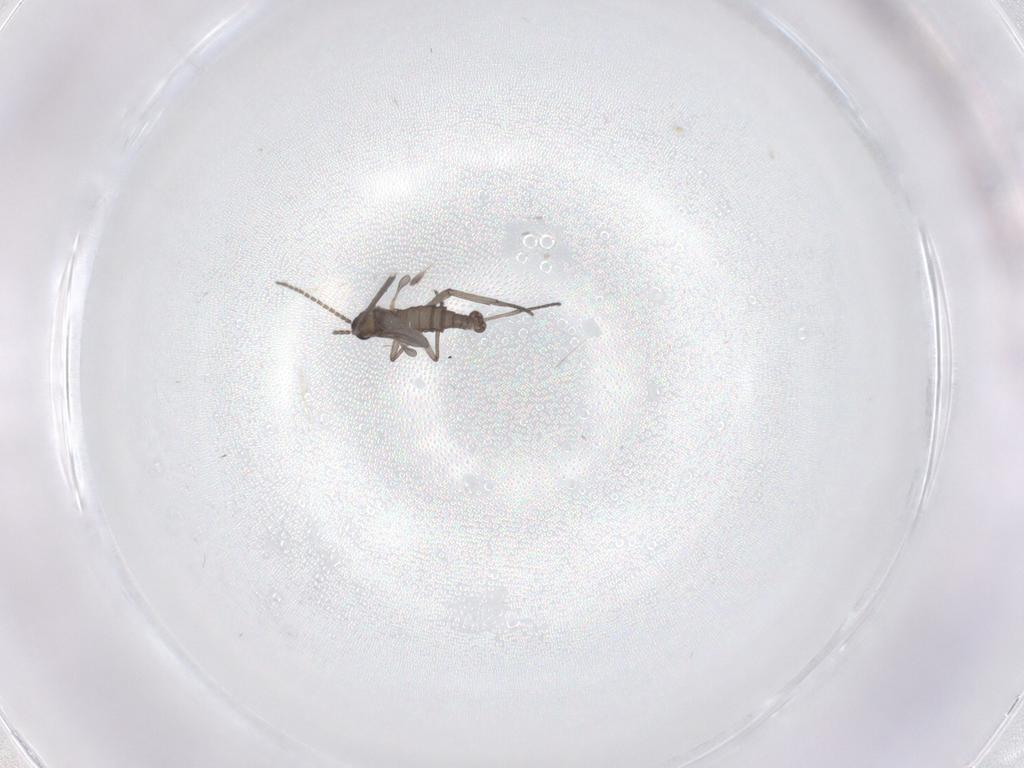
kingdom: Animalia
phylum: Arthropoda
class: Insecta
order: Diptera
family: Sciaridae
